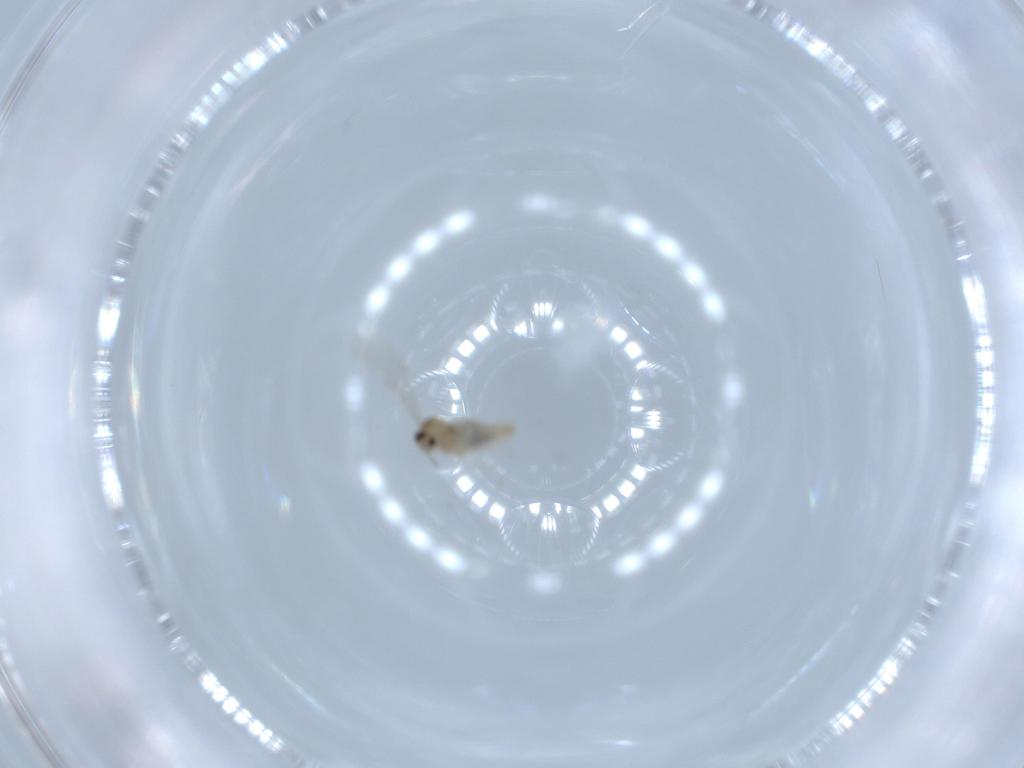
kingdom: Animalia
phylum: Arthropoda
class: Insecta
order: Diptera
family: Cecidomyiidae
